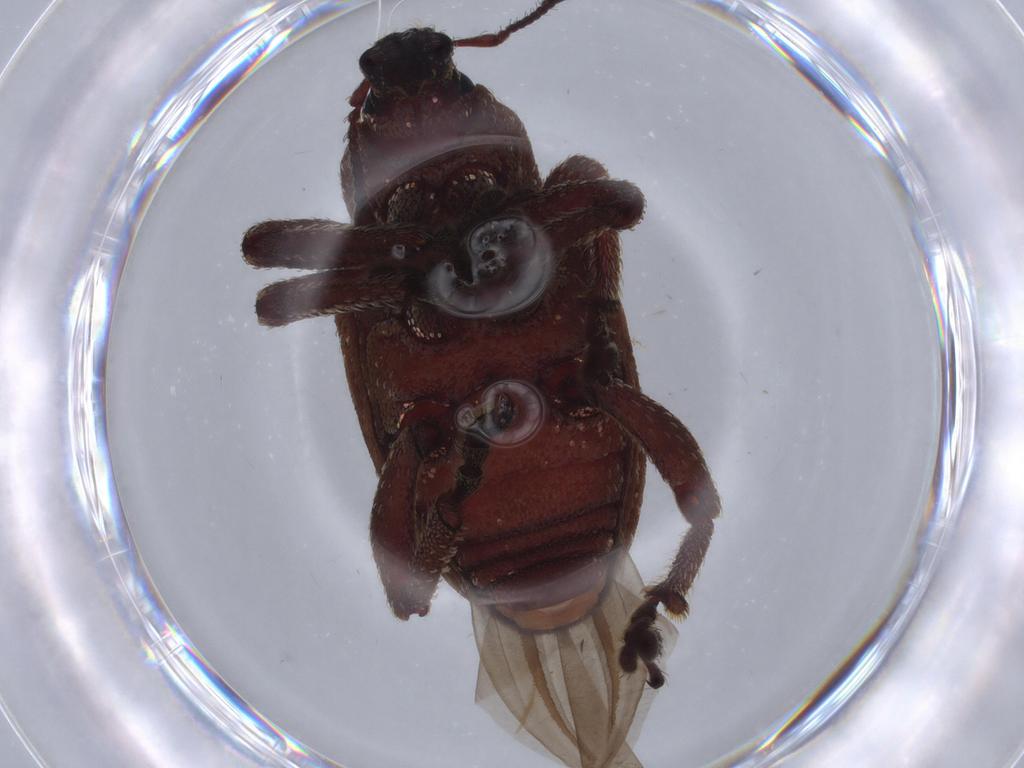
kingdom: Animalia
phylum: Arthropoda
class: Insecta
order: Coleoptera
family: Curculionidae
